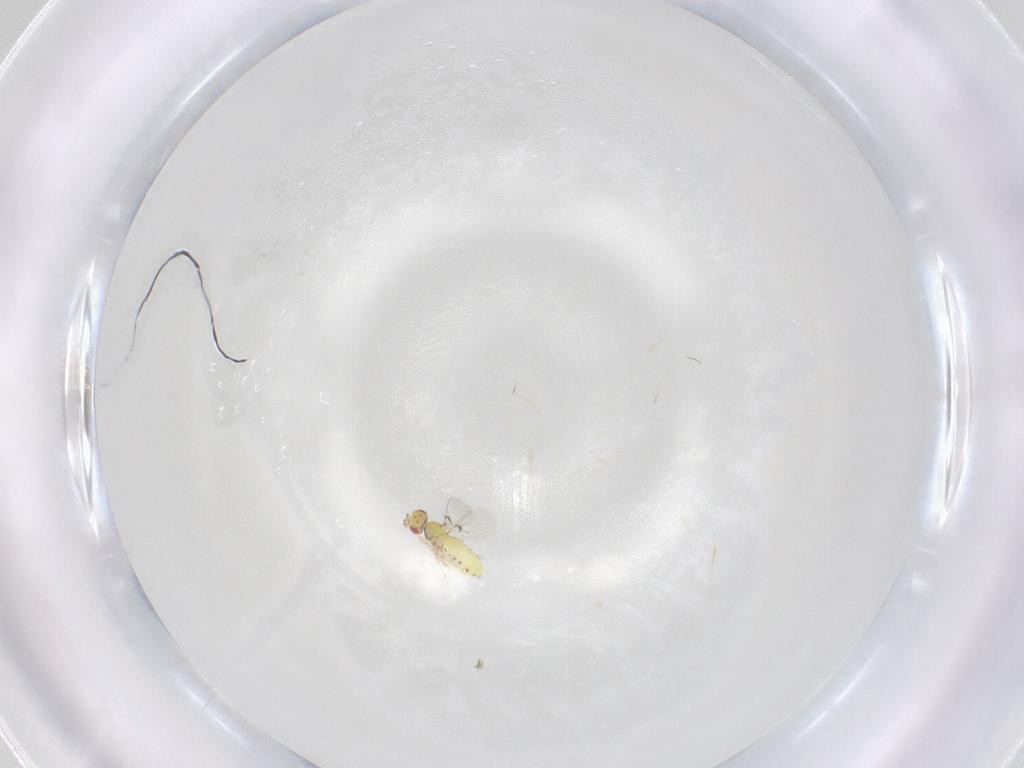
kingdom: Animalia
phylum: Arthropoda
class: Insecta
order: Hymenoptera
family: Trichogrammatidae
